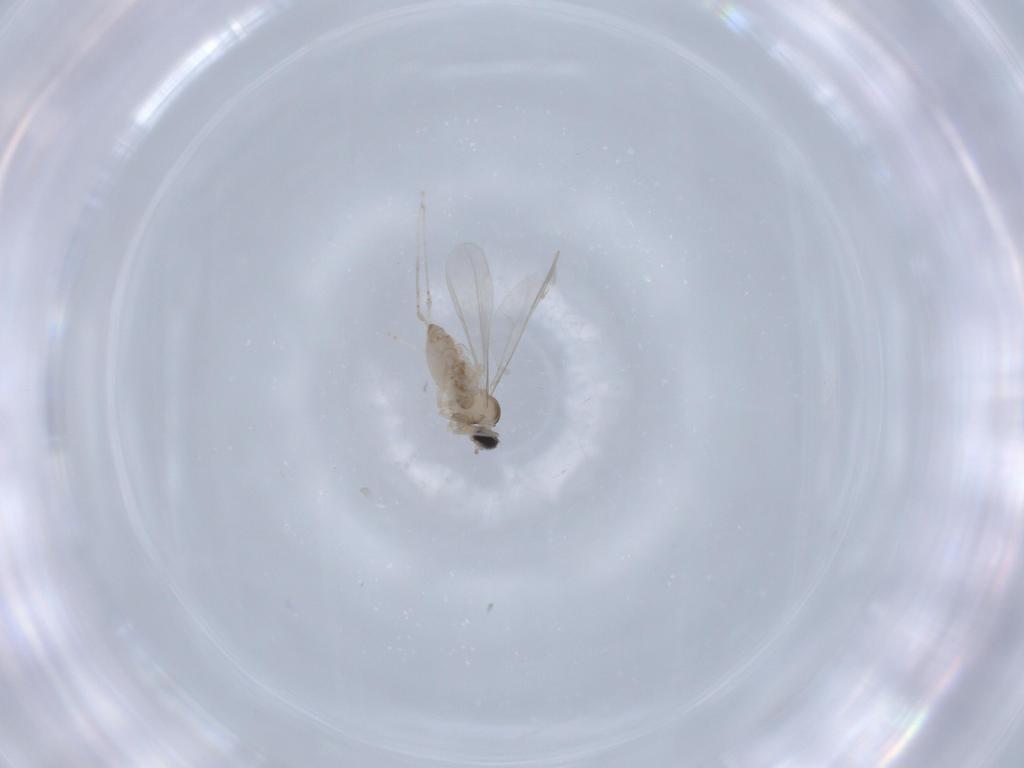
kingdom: Animalia
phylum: Arthropoda
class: Insecta
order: Diptera
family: Cecidomyiidae
